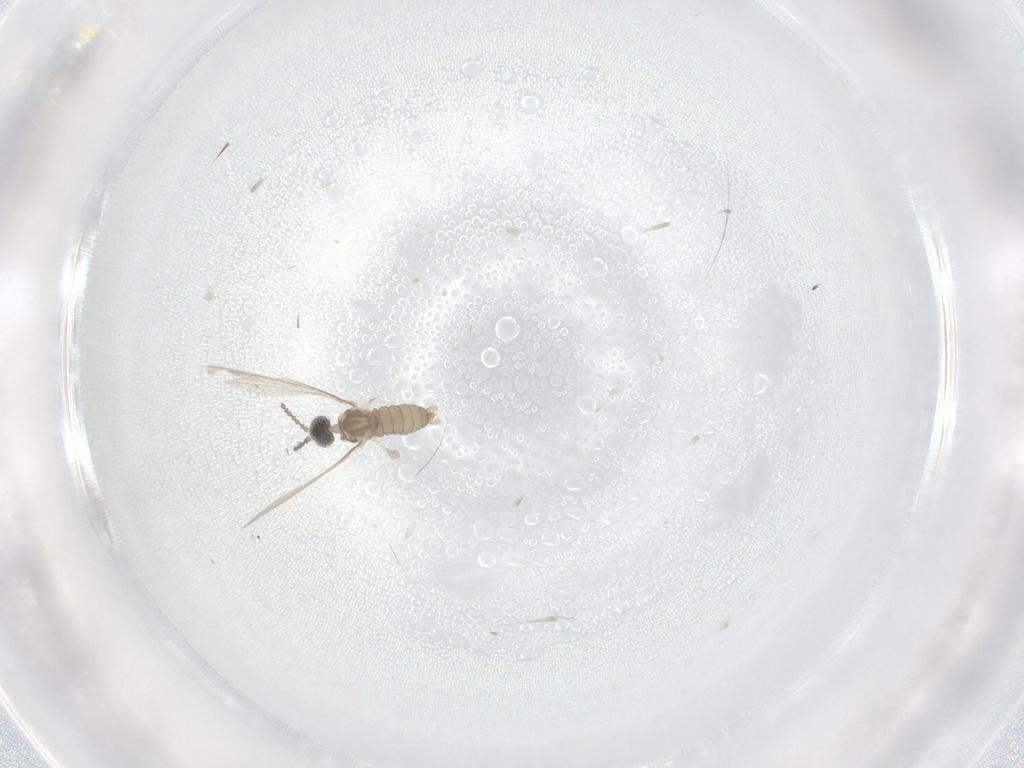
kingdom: Animalia
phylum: Arthropoda
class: Insecta
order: Diptera
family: Cecidomyiidae
